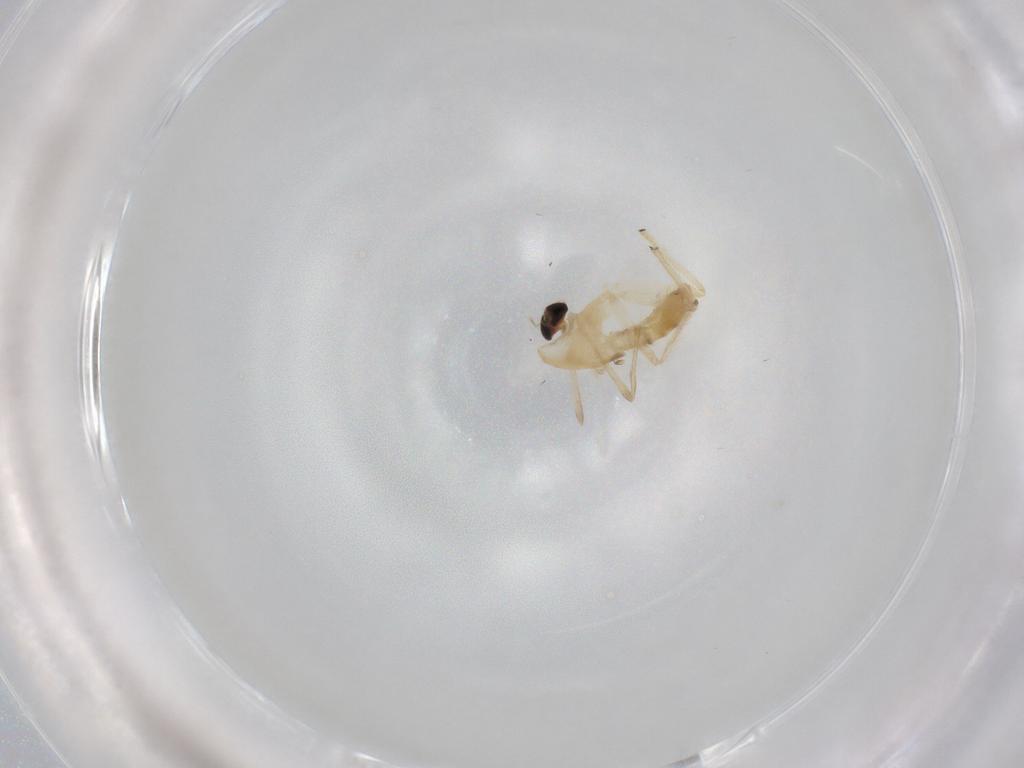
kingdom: Animalia
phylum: Arthropoda
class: Insecta
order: Diptera
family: Chironomidae
